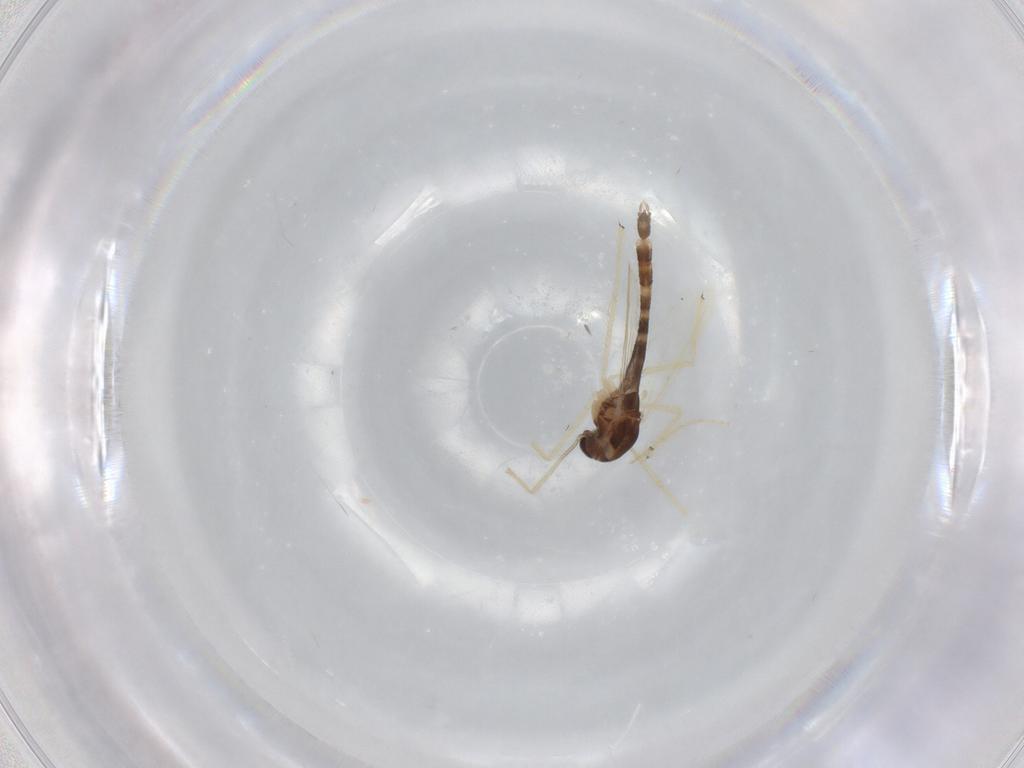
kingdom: Animalia
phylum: Arthropoda
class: Insecta
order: Diptera
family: Chironomidae
